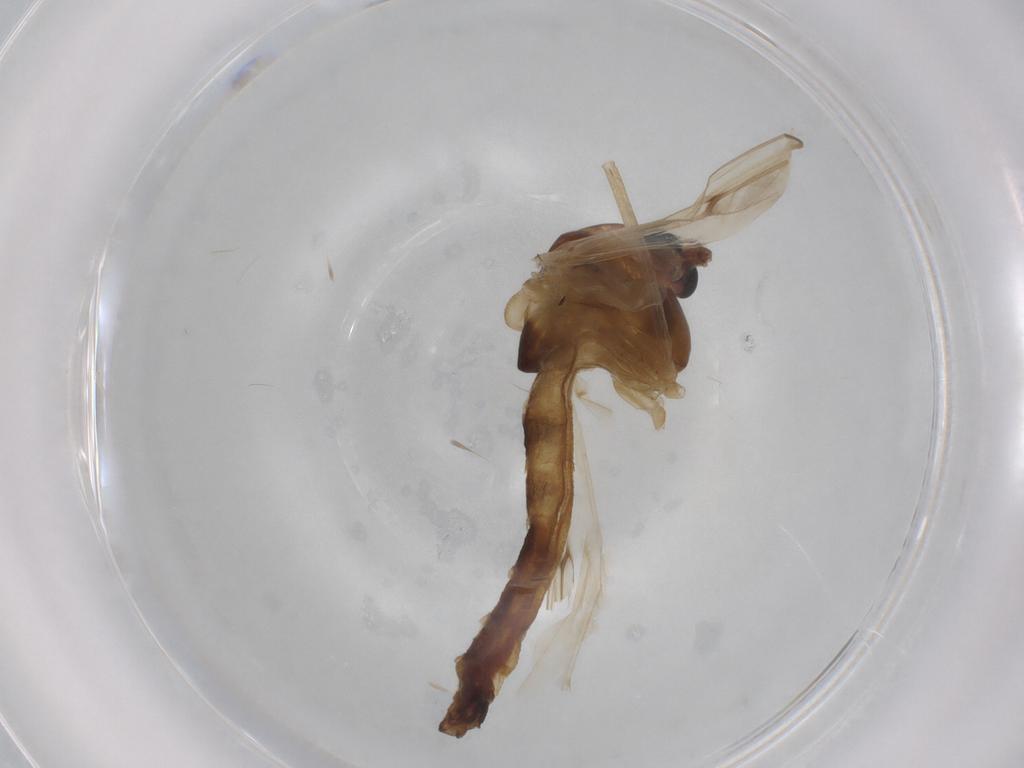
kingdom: Animalia
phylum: Arthropoda
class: Insecta
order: Diptera
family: Chironomidae
